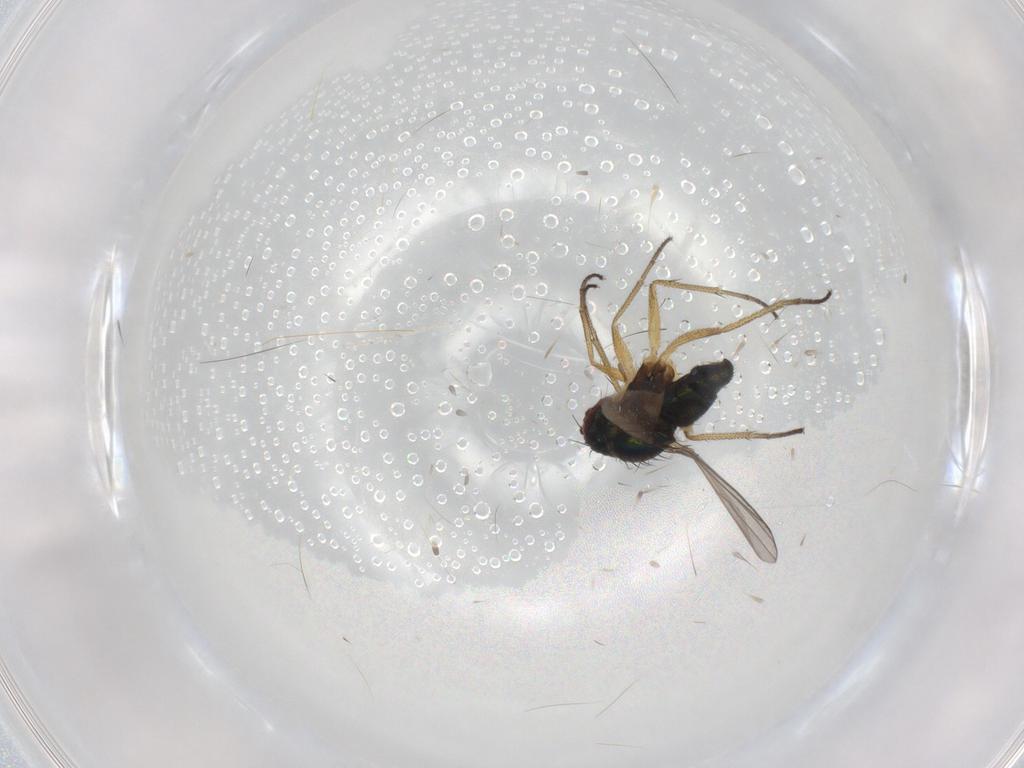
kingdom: Animalia
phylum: Arthropoda
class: Insecta
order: Diptera
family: Dolichopodidae
